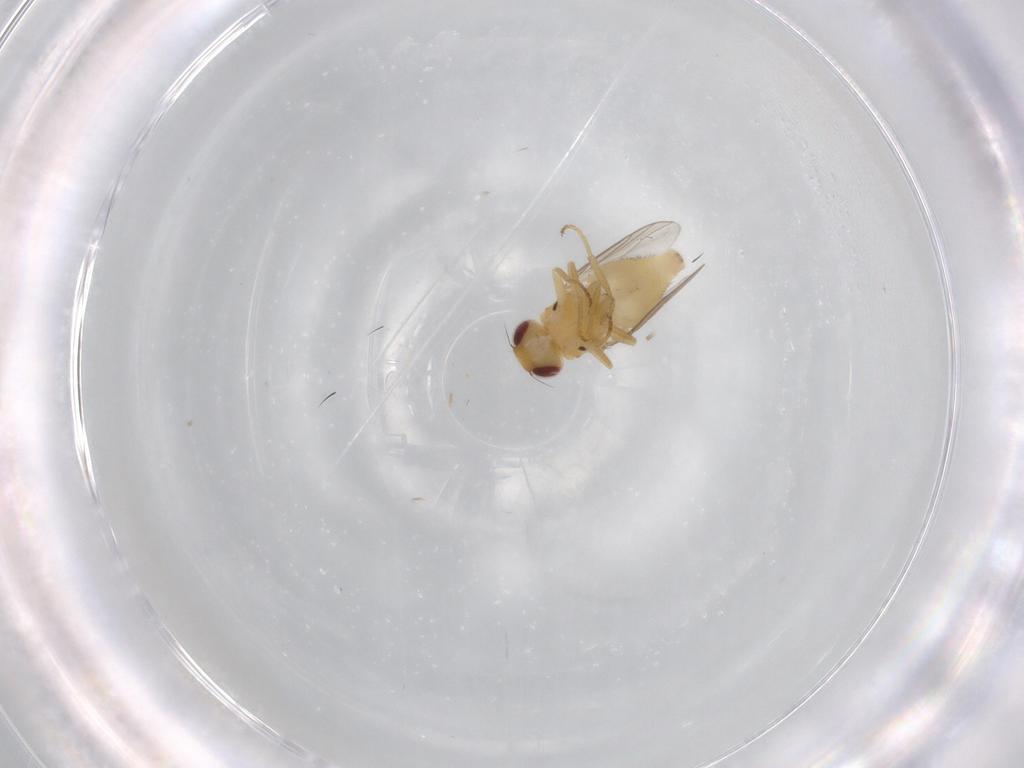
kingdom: Animalia
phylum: Arthropoda
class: Insecta
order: Diptera
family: Chloropidae
